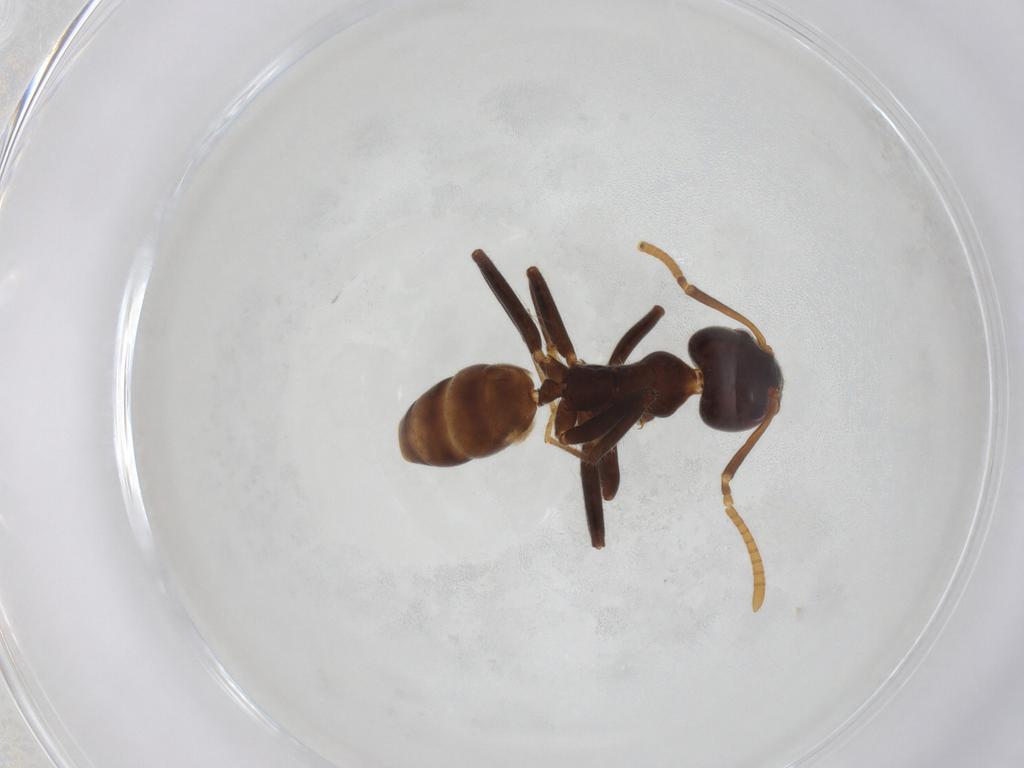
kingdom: Animalia
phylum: Arthropoda
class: Insecta
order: Hymenoptera
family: Formicidae
